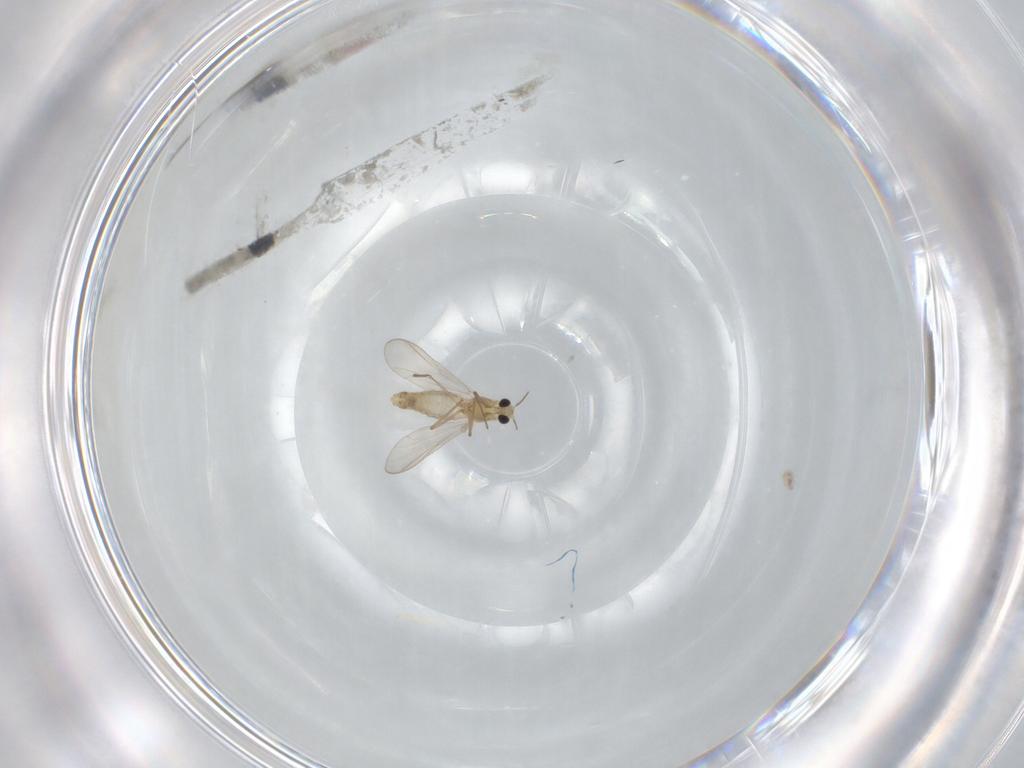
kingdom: Animalia
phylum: Arthropoda
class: Insecta
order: Diptera
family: Chironomidae
